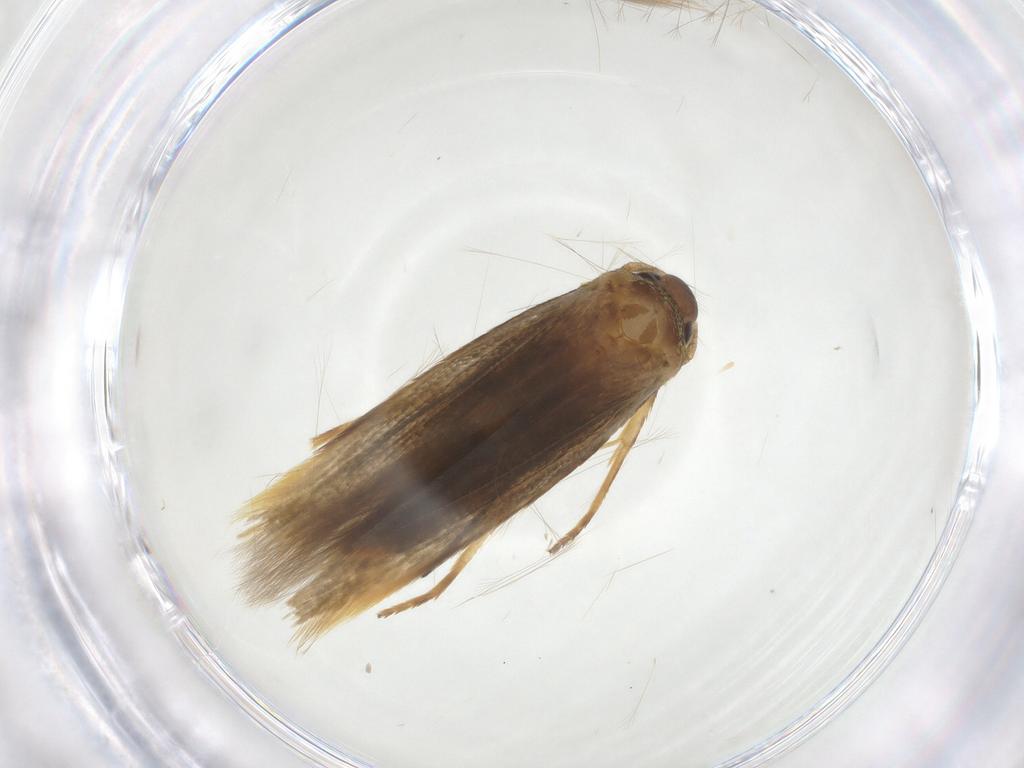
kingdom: Animalia
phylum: Arthropoda
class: Insecta
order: Lepidoptera
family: Stathmopodidae
